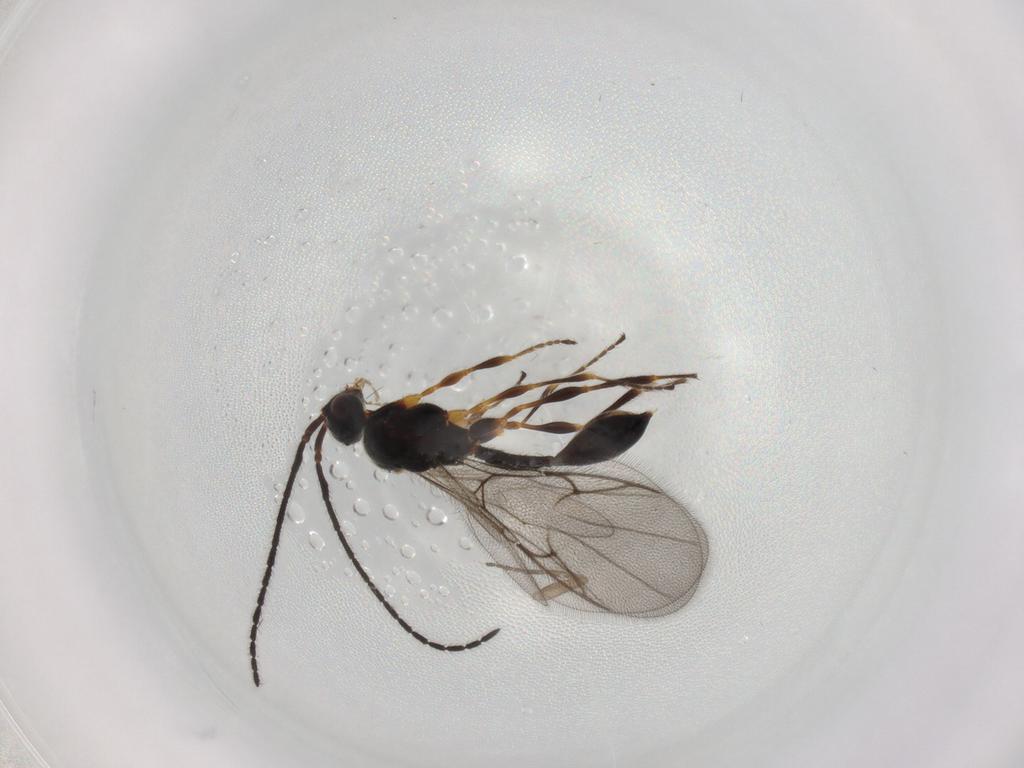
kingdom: Animalia
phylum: Arthropoda
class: Insecta
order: Hymenoptera
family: Diapriidae
